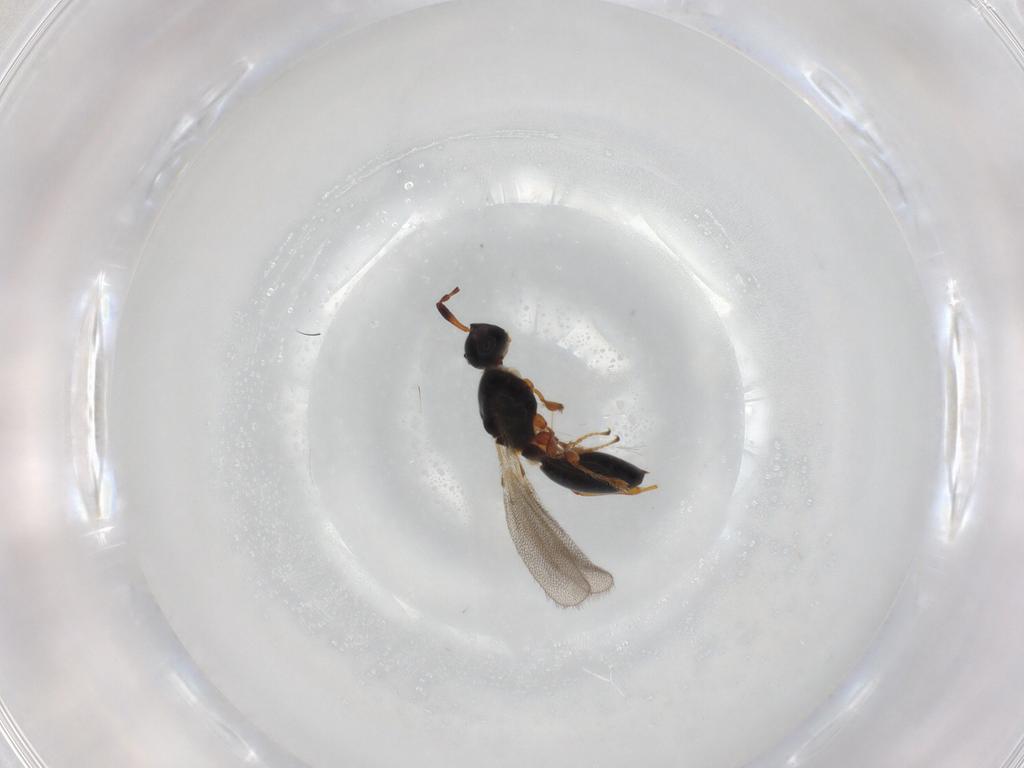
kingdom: Animalia
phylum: Arthropoda
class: Insecta
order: Hymenoptera
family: Diapriidae
